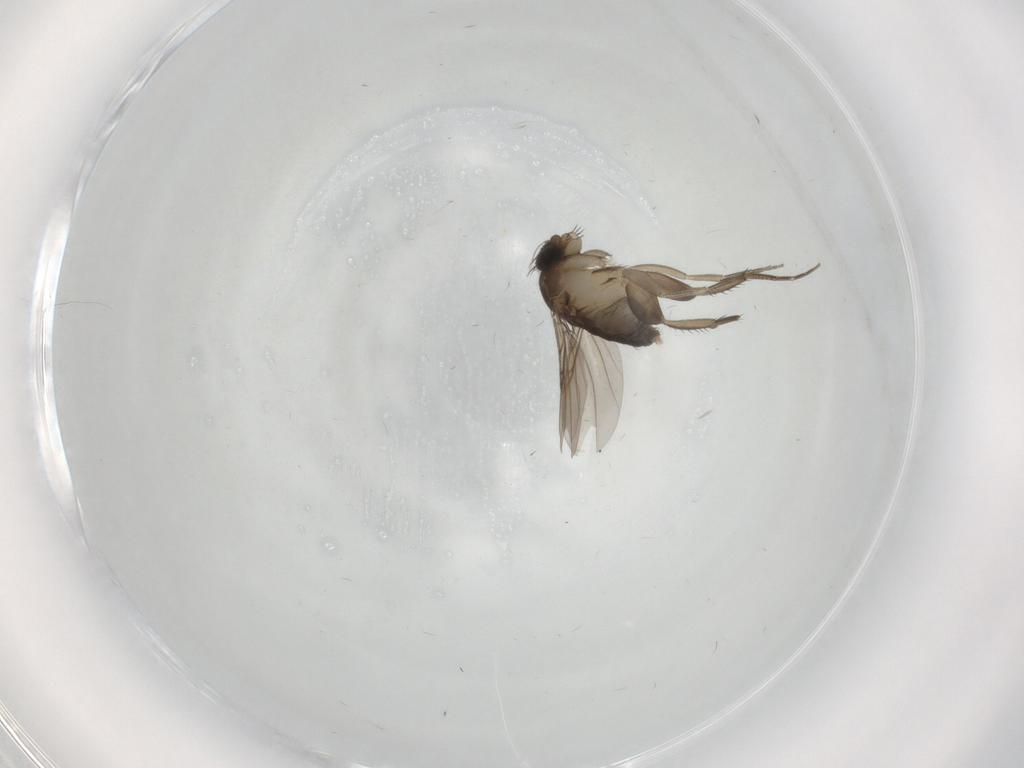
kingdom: Animalia
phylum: Arthropoda
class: Insecta
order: Diptera
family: Phoridae
